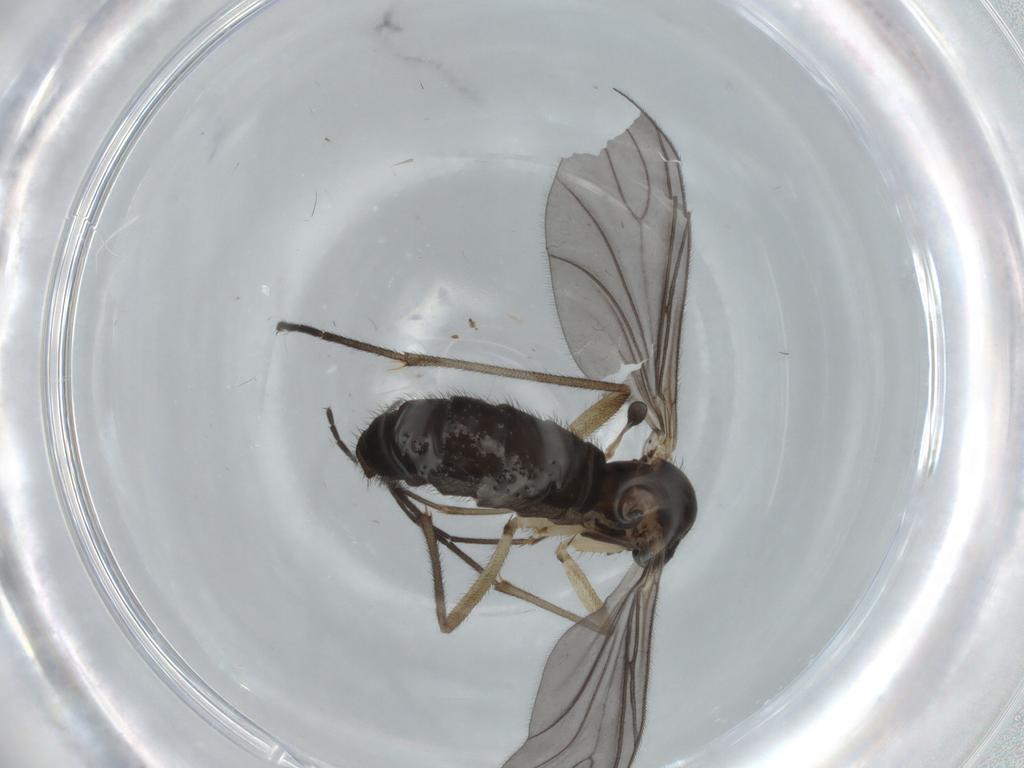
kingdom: Animalia
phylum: Arthropoda
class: Insecta
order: Diptera
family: Sciaridae
